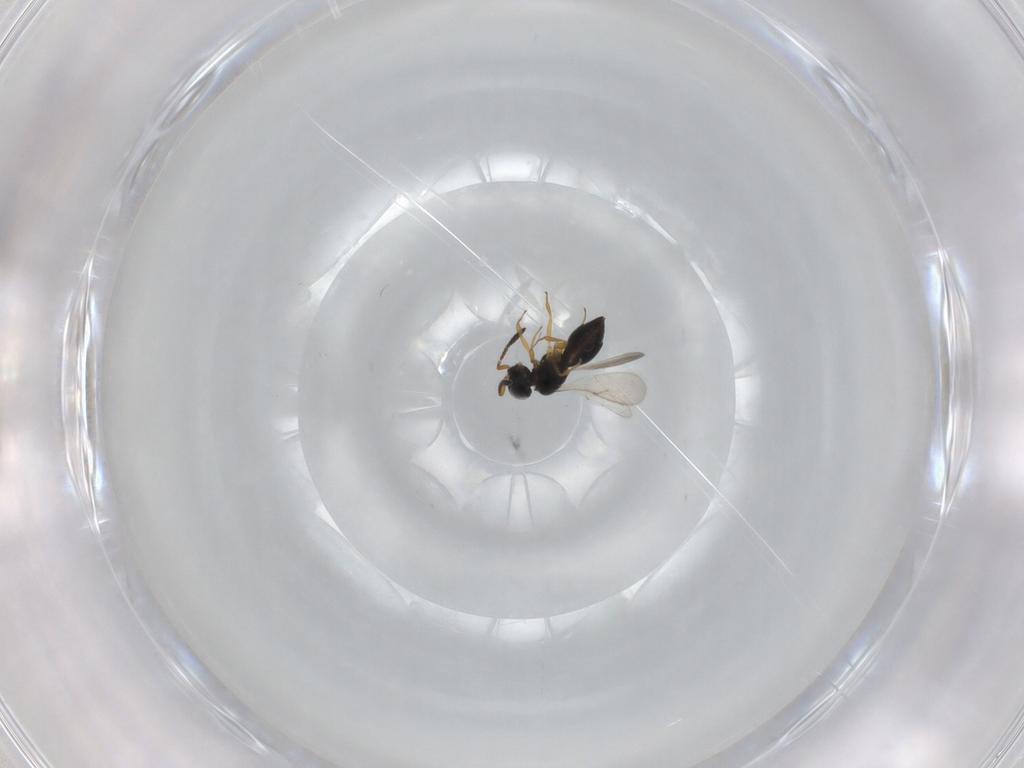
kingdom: Animalia
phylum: Arthropoda
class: Insecta
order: Hymenoptera
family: Scelionidae
